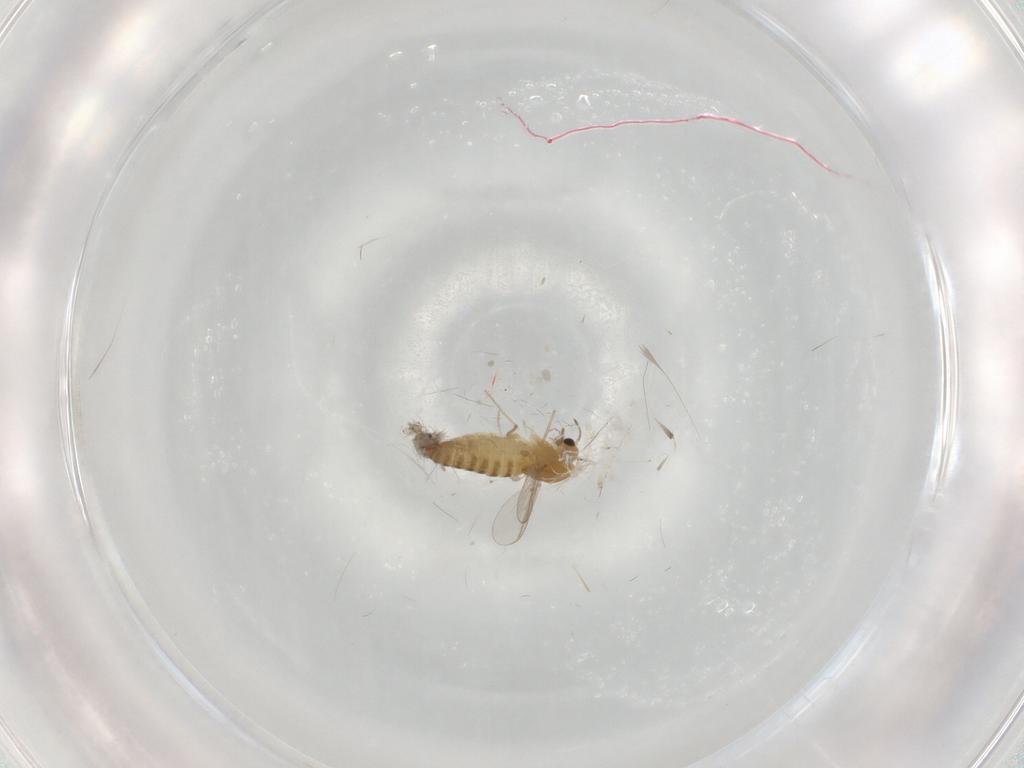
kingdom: Animalia
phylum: Arthropoda
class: Insecta
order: Diptera
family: Chironomidae
